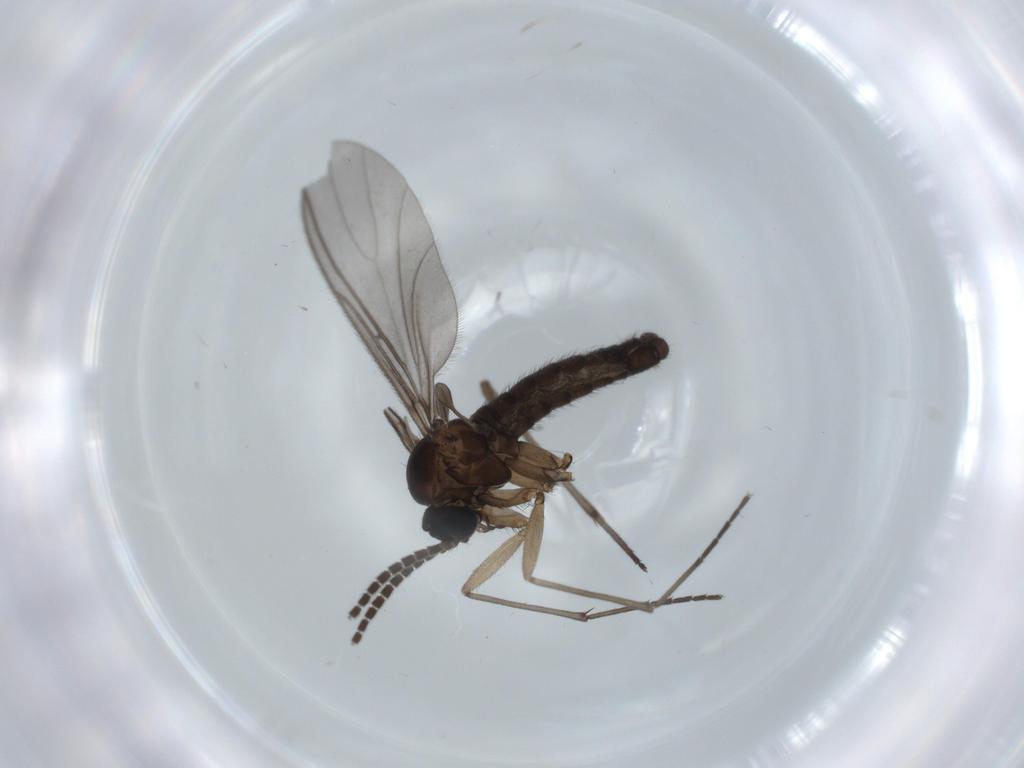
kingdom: Animalia
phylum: Arthropoda
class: Insecta
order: Diptera
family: Sciaridae
